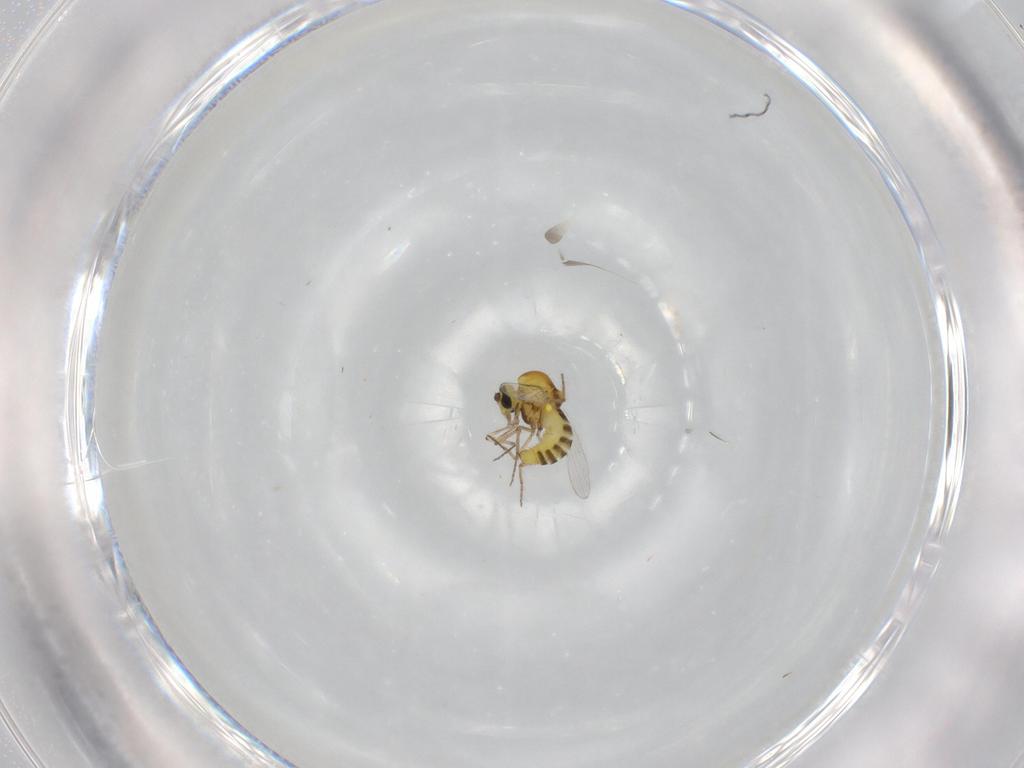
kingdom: Animalia
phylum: Arthropoda
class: Insecta
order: Diptera
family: Ceratopogonidae
